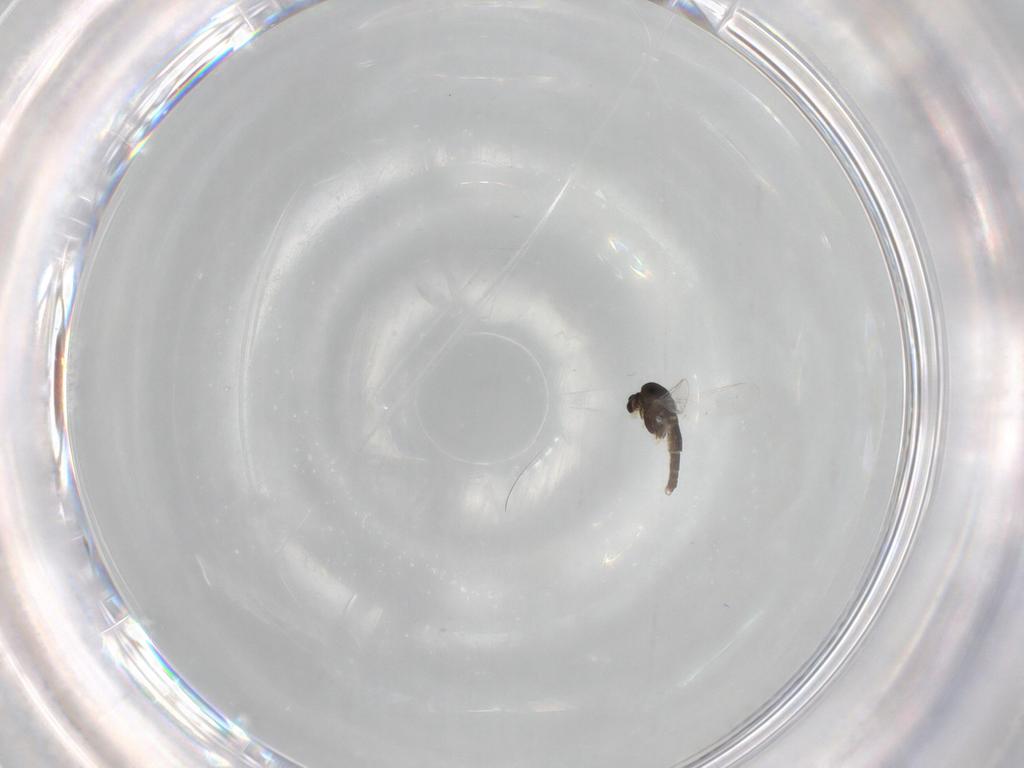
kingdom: Animalia
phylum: Arthropoda
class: Insecta
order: Diptera
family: Chironomidae
